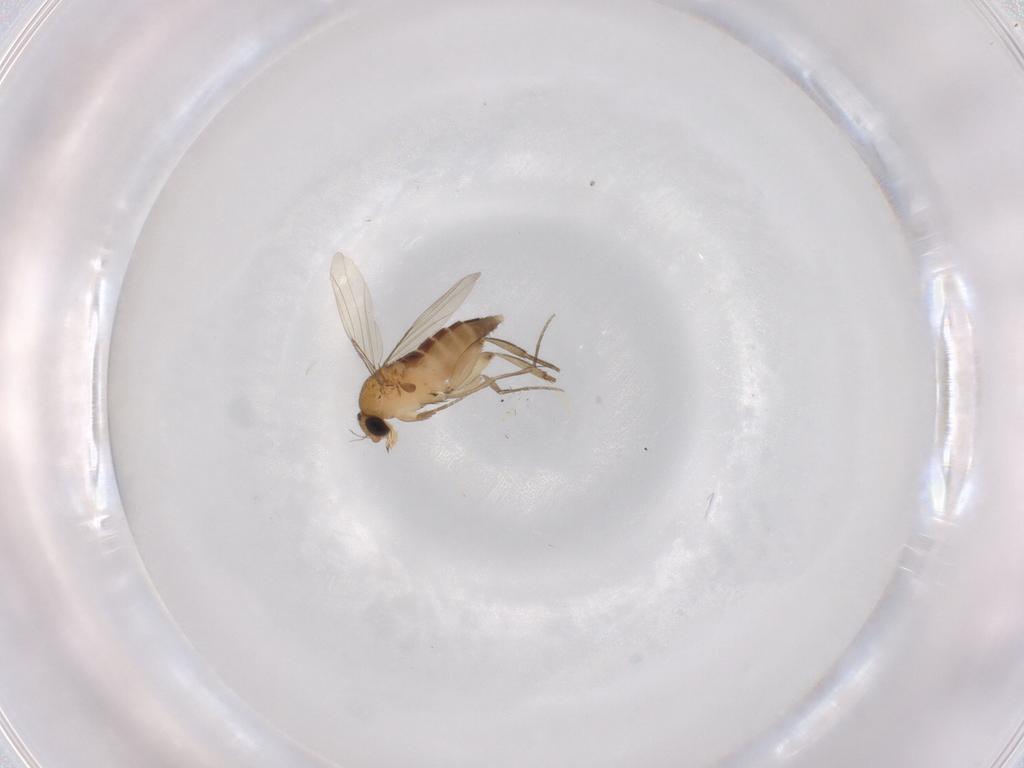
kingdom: Animalia
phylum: Arthropoda
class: Insecta
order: Diptera
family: Phoridae
